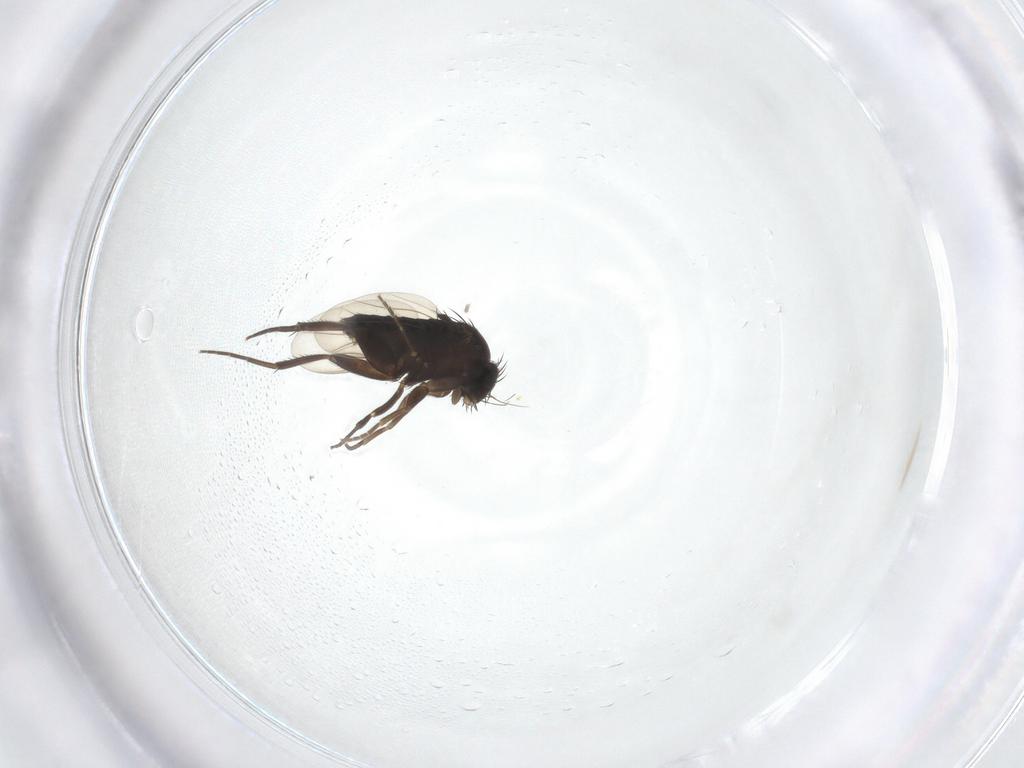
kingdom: Animalia
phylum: Arthropoda
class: Insecta
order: Diptera
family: Phoridae
